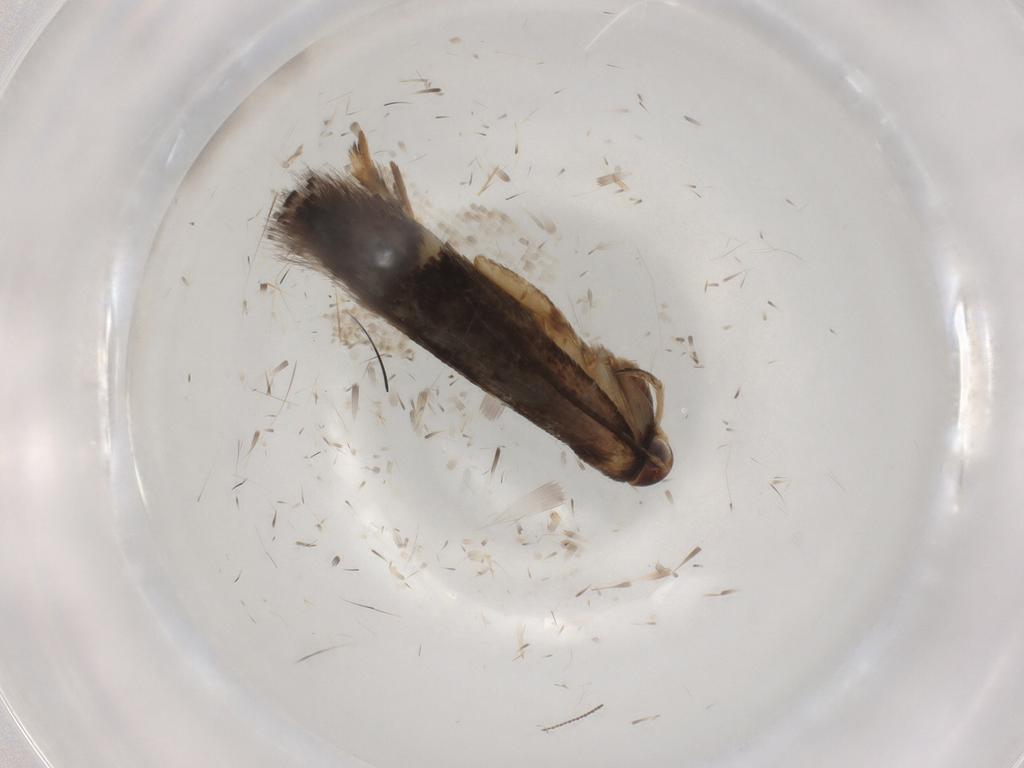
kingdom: Animalia
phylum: Arthropoda
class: Insecta
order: Lepidoptera
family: Gelechiidae
